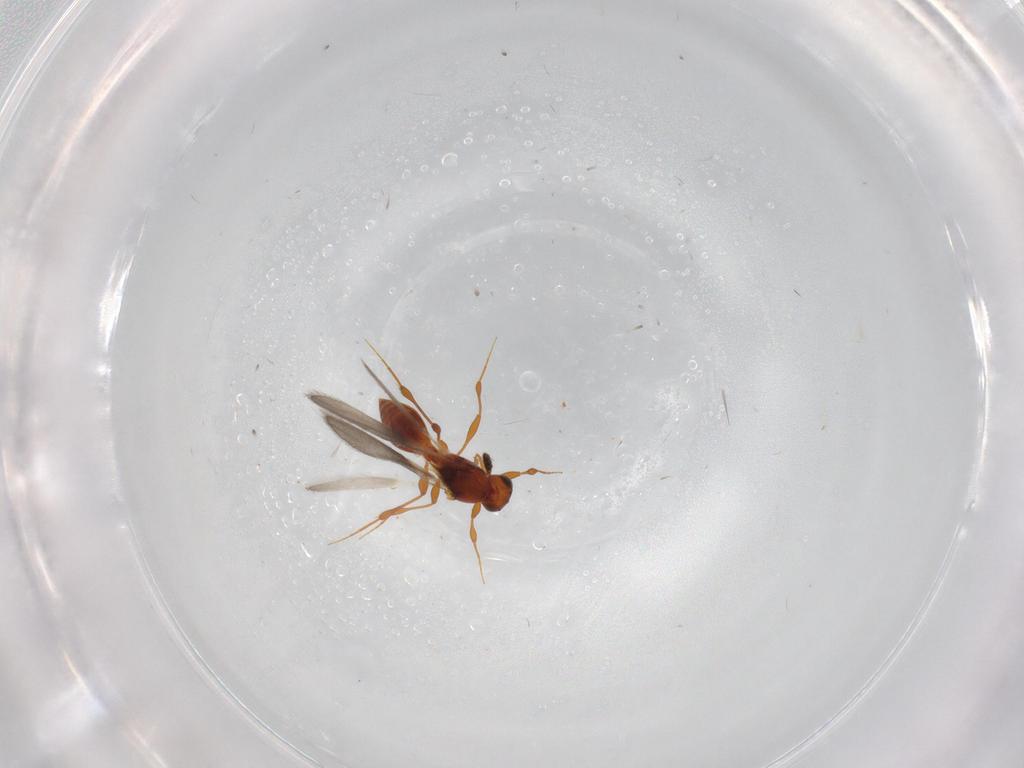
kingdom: Animalia
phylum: Arthropoda
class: Insecta
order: Hymenoptera
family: Platygastridae
